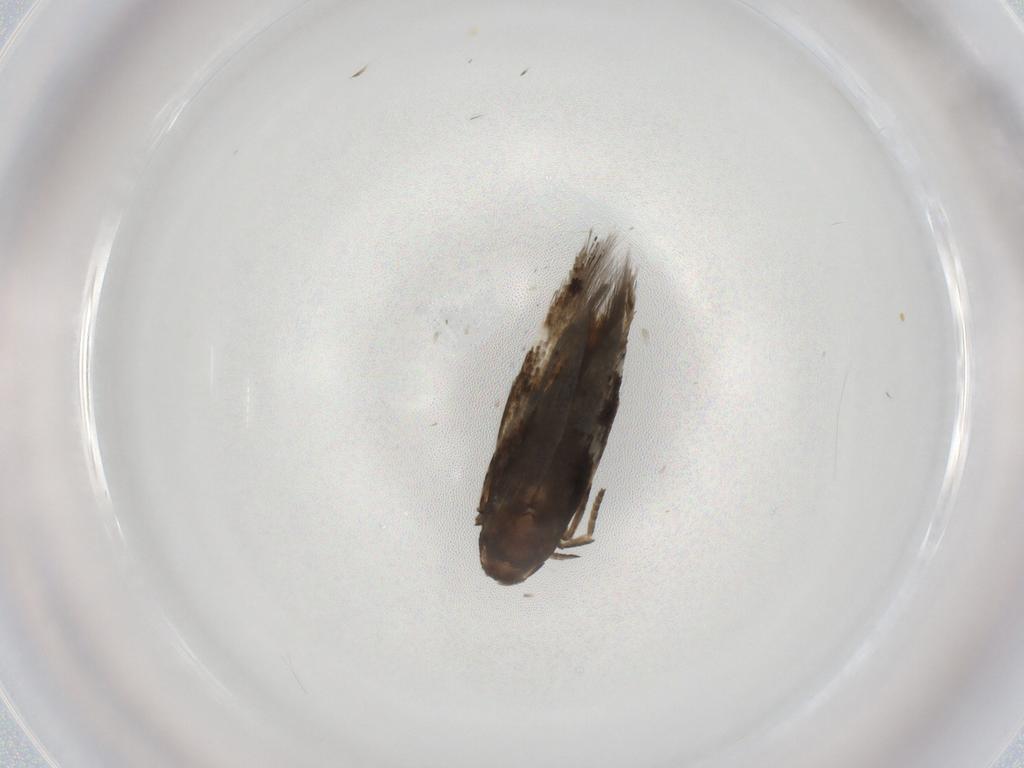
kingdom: Animalia
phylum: Arthropoda
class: Insecta
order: Lepidoptera
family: Momphidae
